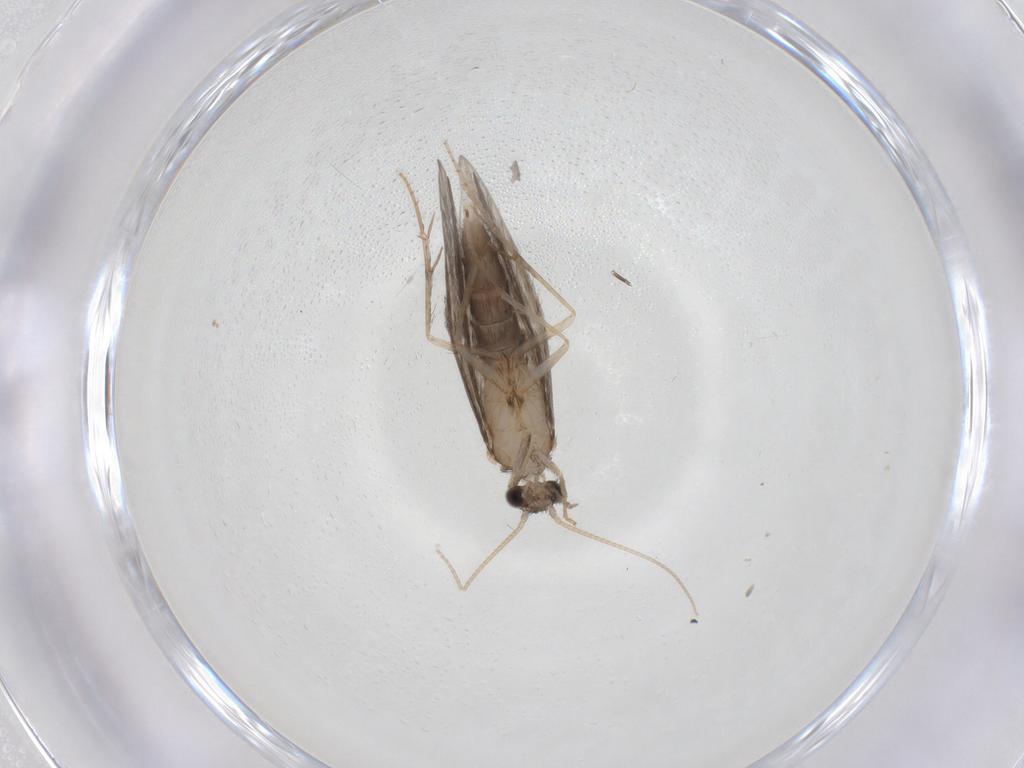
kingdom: Animalia
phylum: Arthropoda
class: Insecta
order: Trichoptera
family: Hydroptilidae
